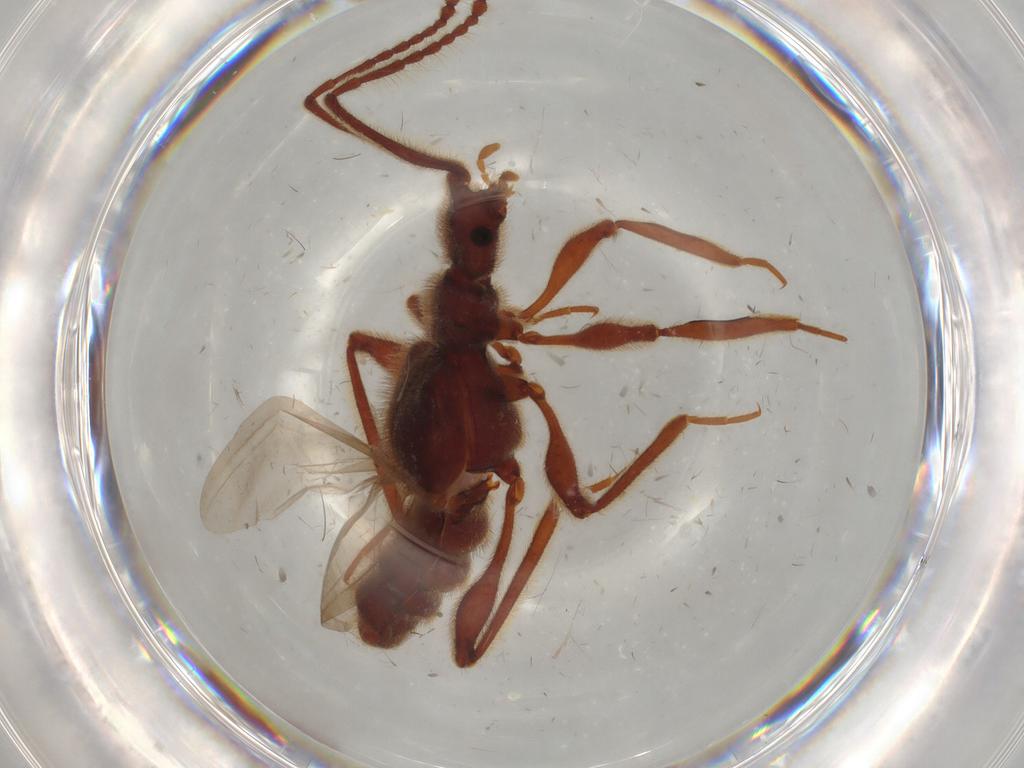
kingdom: Animalia
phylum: Arthropoda
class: Insecta
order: Coleoptera
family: Staphylinidae
